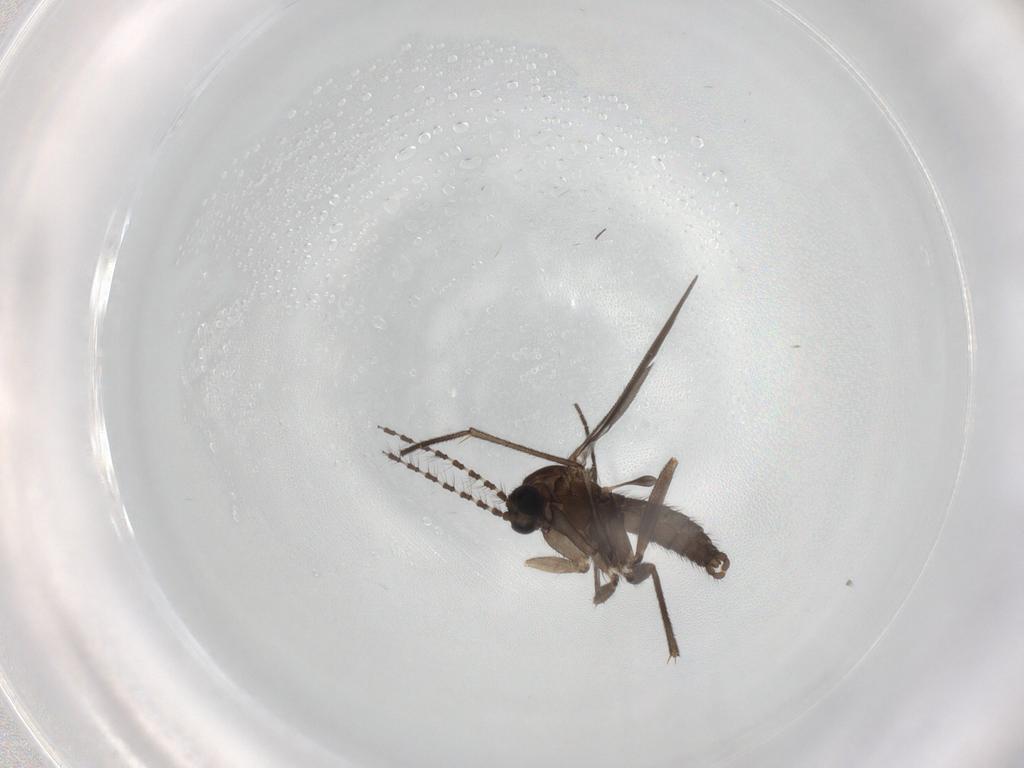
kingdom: Animalia
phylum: Arthropoda
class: Insecta
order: Diptera
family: Sciaridae
